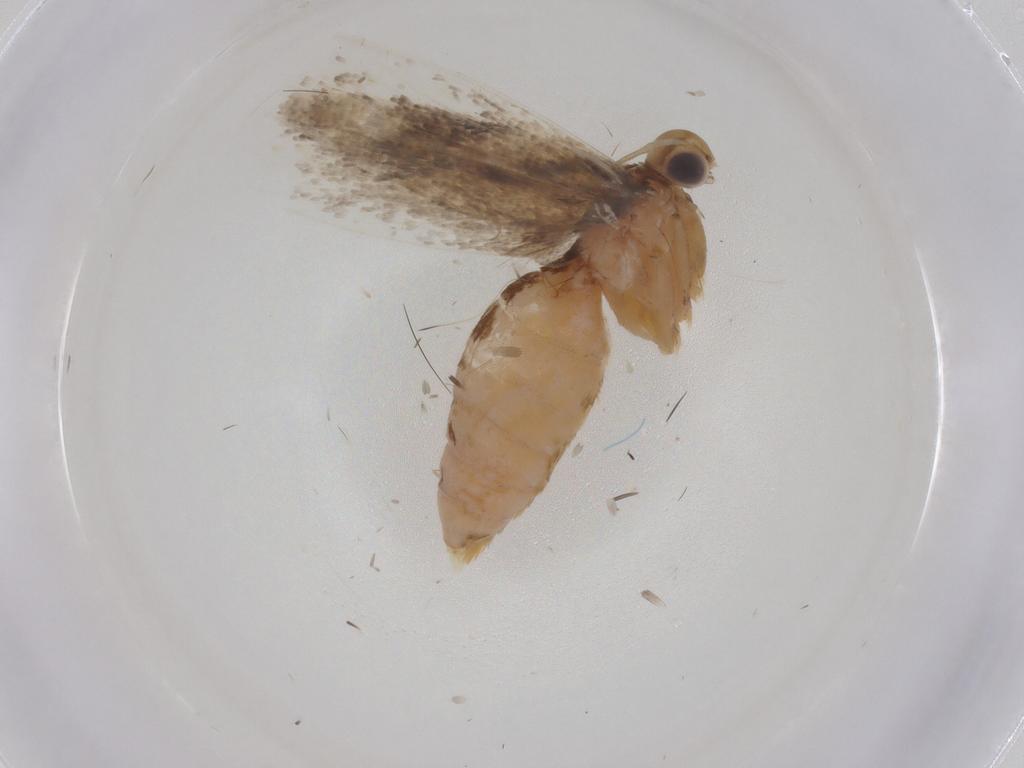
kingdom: Animalia
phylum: Arthropoda
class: Insecta
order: Lepidoptera
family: Gelechiidae
